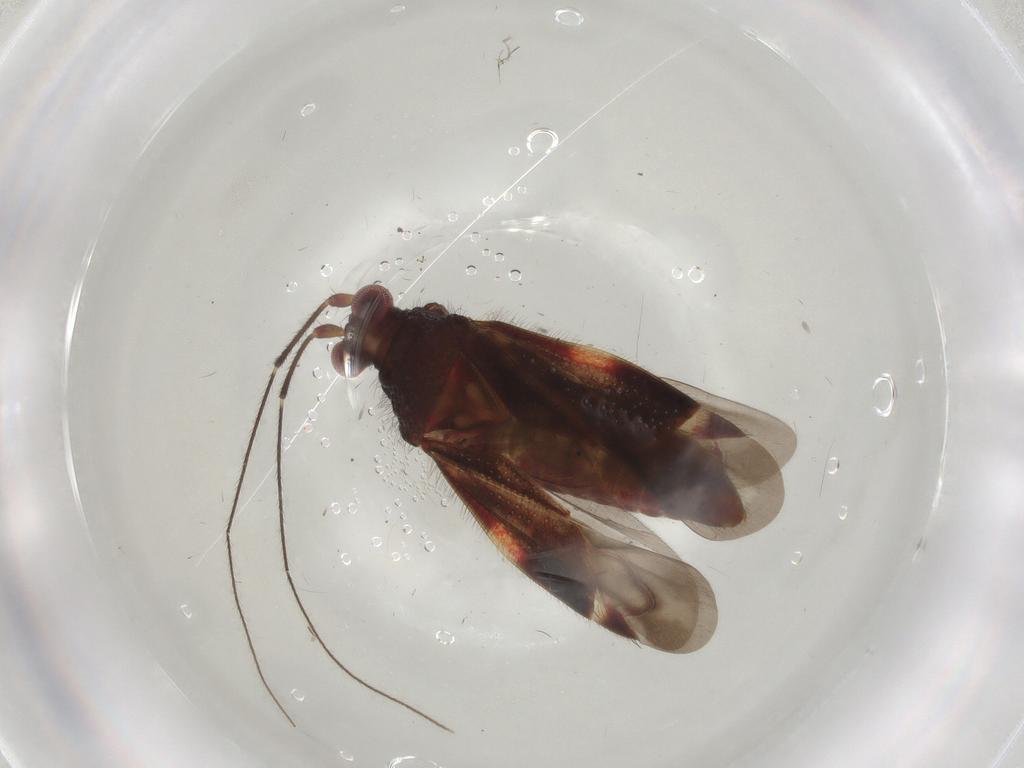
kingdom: Animalia
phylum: Arthropoda
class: Insecta
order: Hemiptera
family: Miridae
